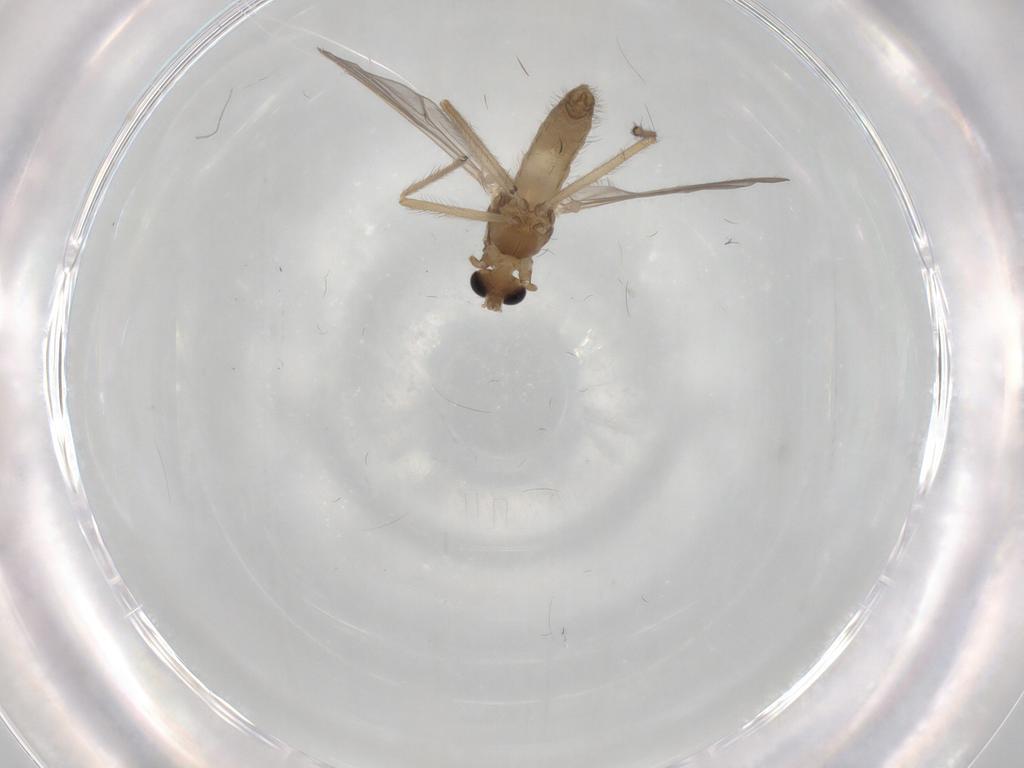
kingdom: Animalia
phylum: Arthropoda
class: Insecta
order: Diptera
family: Chironomidae
